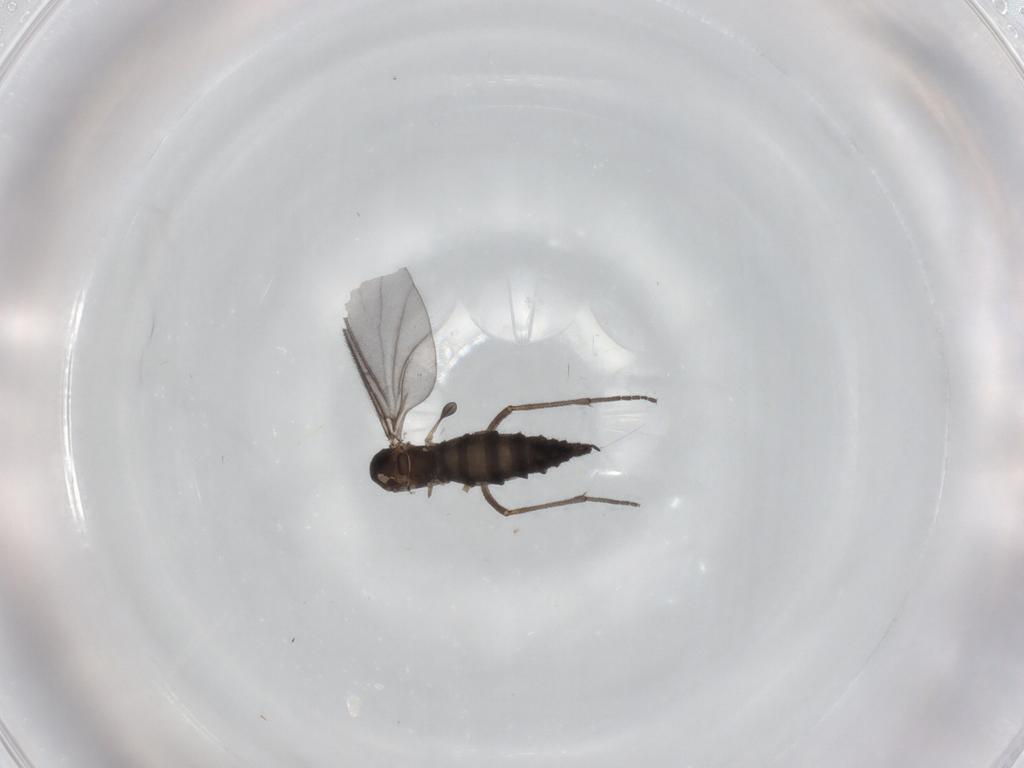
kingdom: Animalia
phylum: Arthropoda
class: Insecta
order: Diptera
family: Sciaridae
